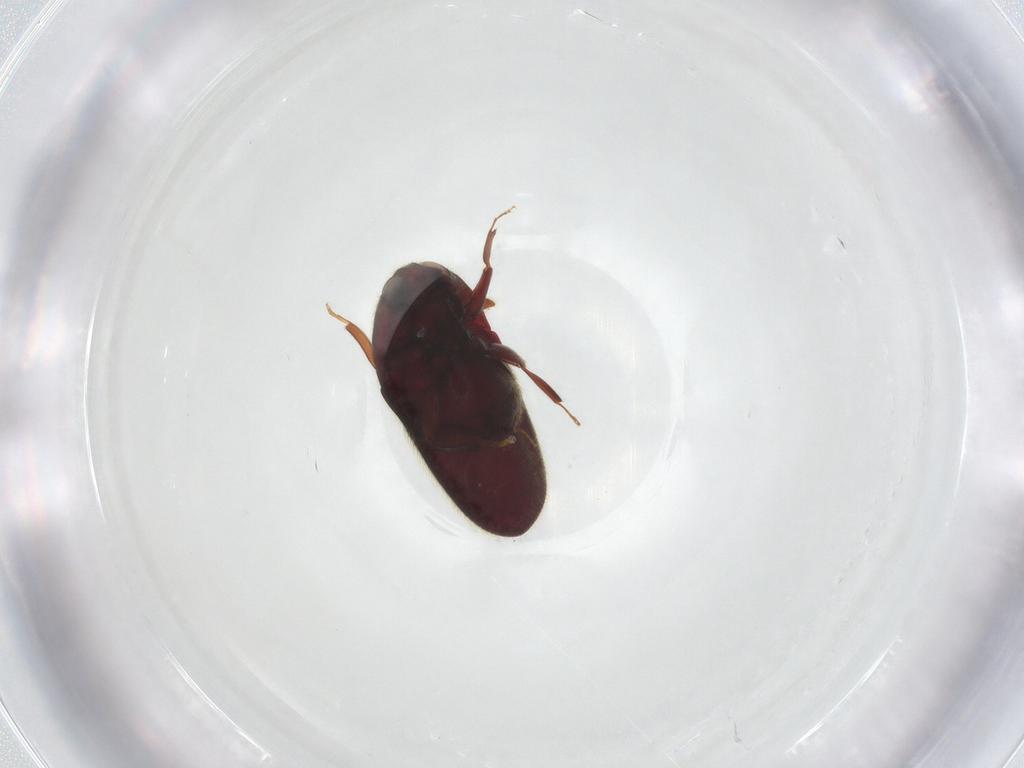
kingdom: Animalia
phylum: Arthropoda
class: Insecta
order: Coleoptera
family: Throscidae
